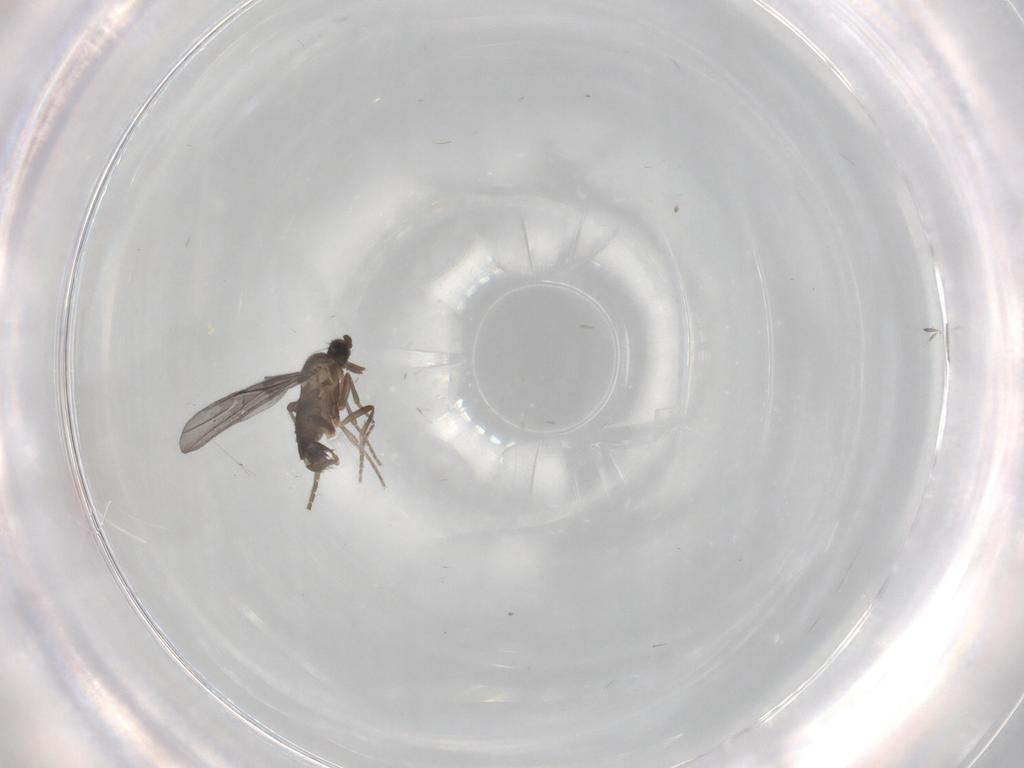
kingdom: Animalia
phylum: Arthropoda
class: Insecta
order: Diptera
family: Phoridae
